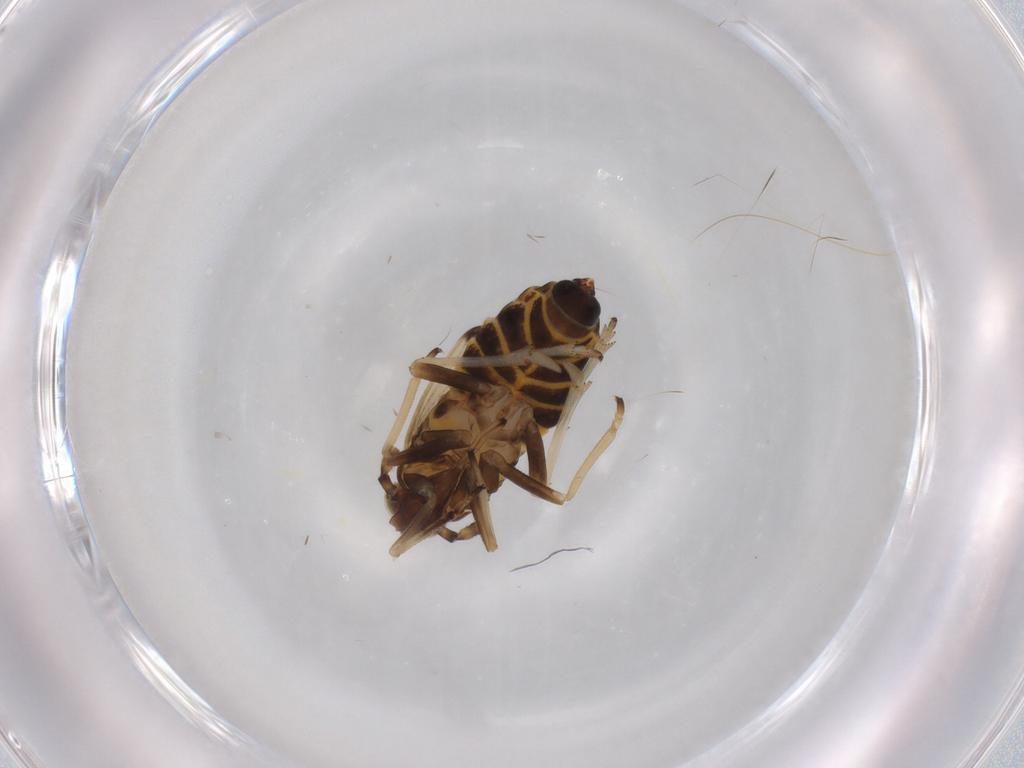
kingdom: Animalia
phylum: Arthropoda
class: Insecta
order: Hemiptera
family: Delphacidae
